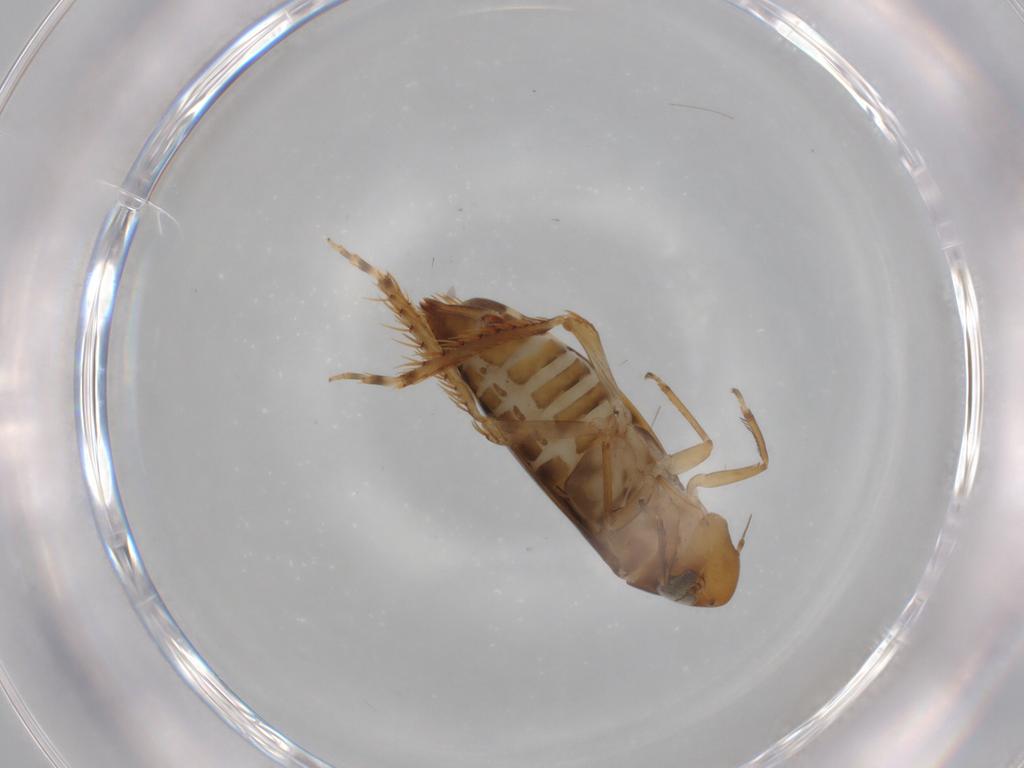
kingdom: Animalia
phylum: Arthropoda
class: Insecta
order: Hemiptera
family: Cicadellidae
